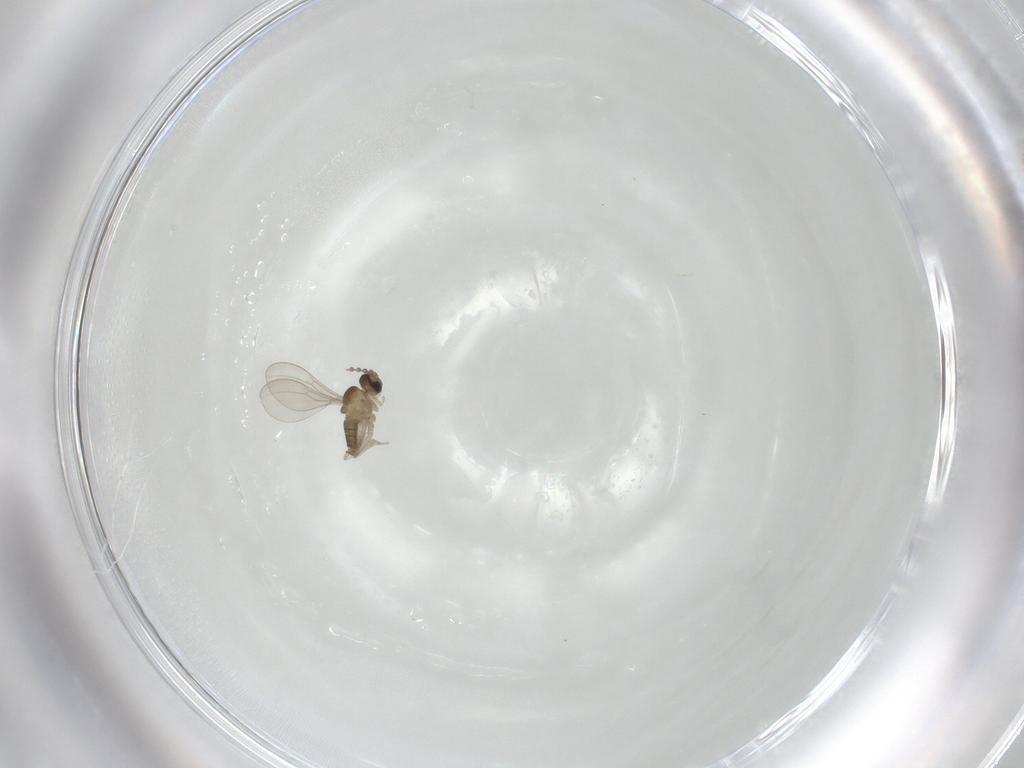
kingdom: Animalia
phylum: Arthropoda
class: Insecta
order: Diptera
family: Cecidomyiidae
